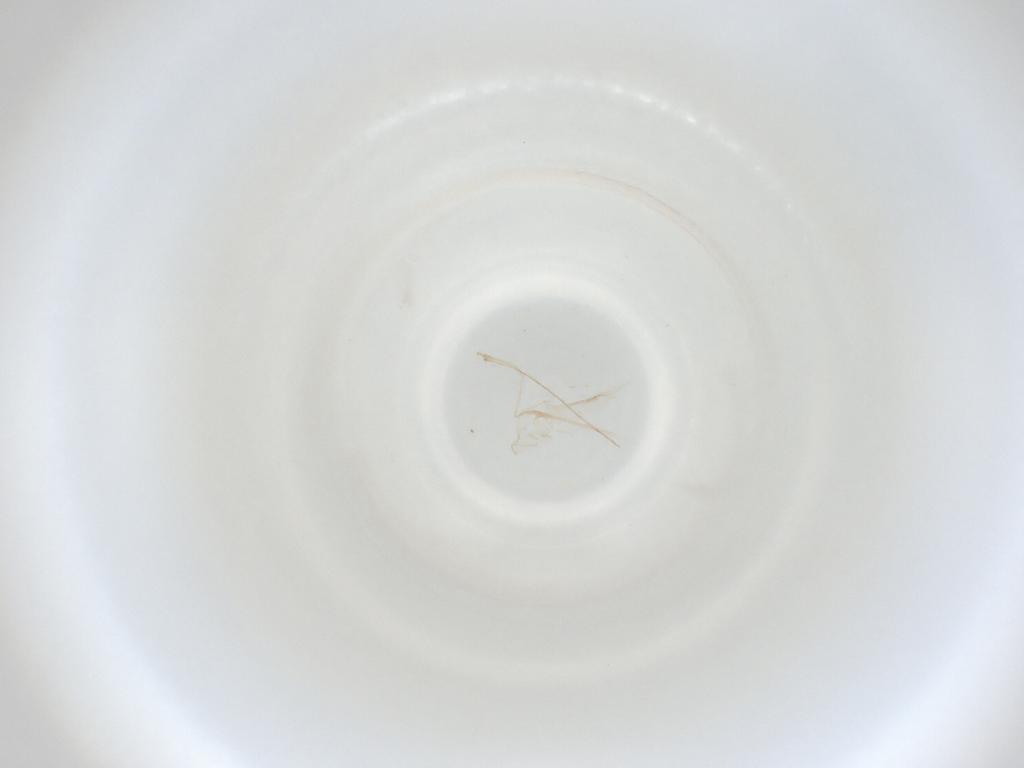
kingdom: Animalia
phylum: Arthropoda
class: Insecta
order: Diptera
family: Cecidomyiidae
